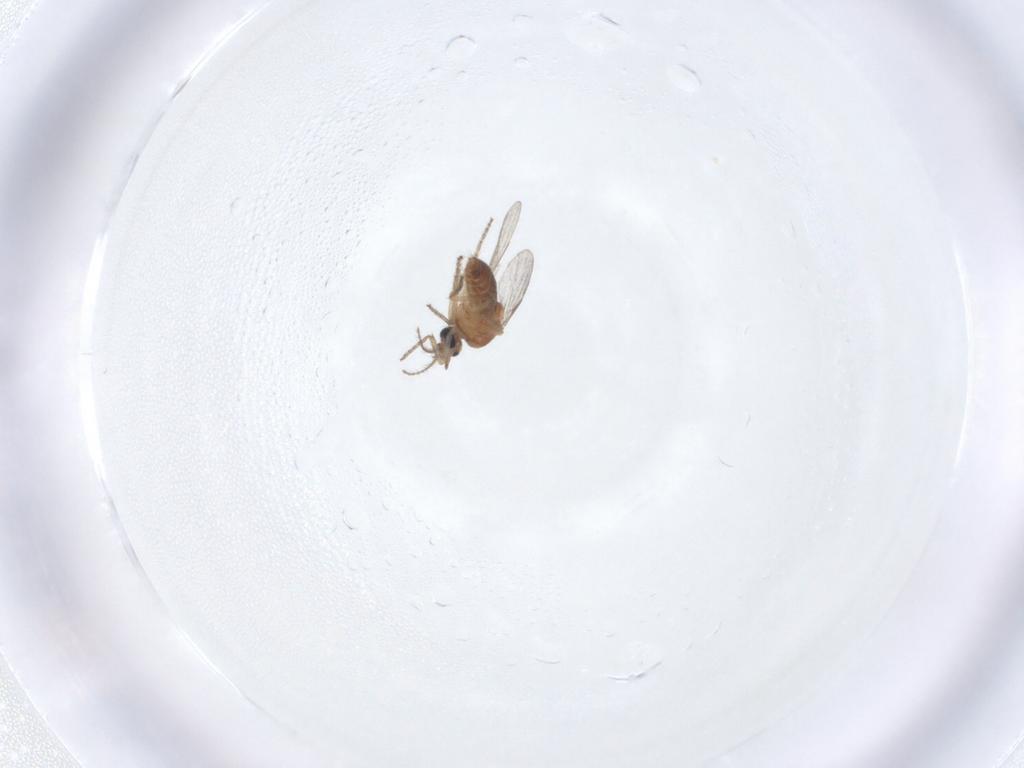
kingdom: Animalia
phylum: Arthropoda
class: Insecta
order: Diptera
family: Ceratopogonidae
